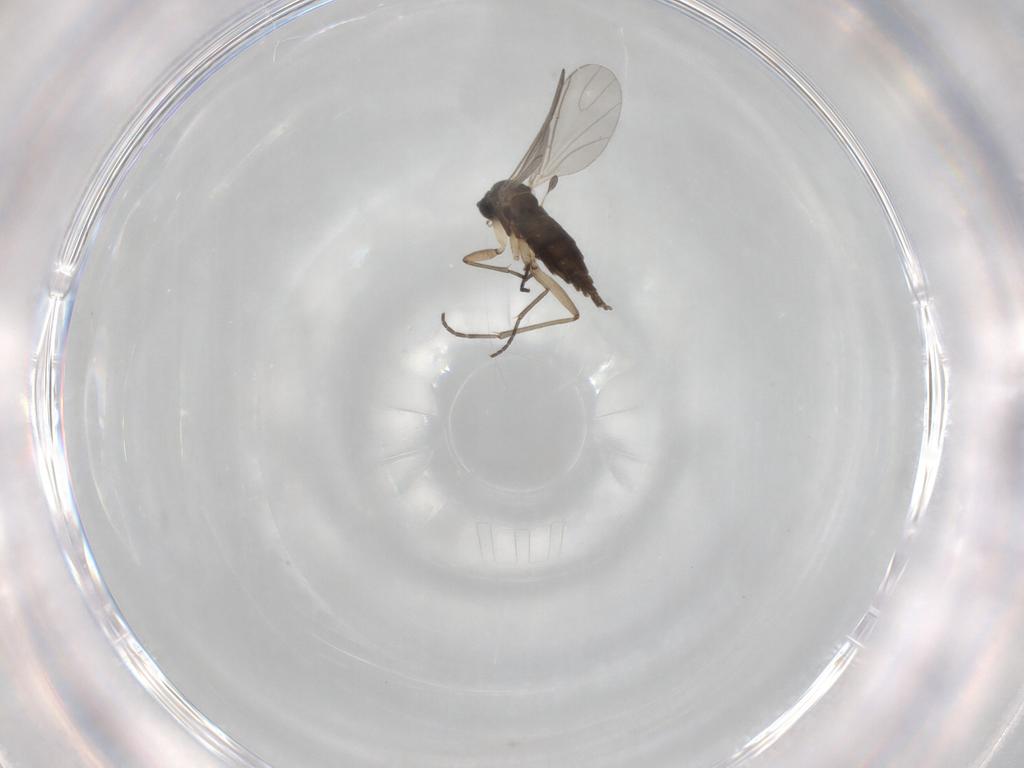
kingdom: Animalia
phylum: Arthropoda
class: Insecta
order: Diptera
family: Sciaridae
